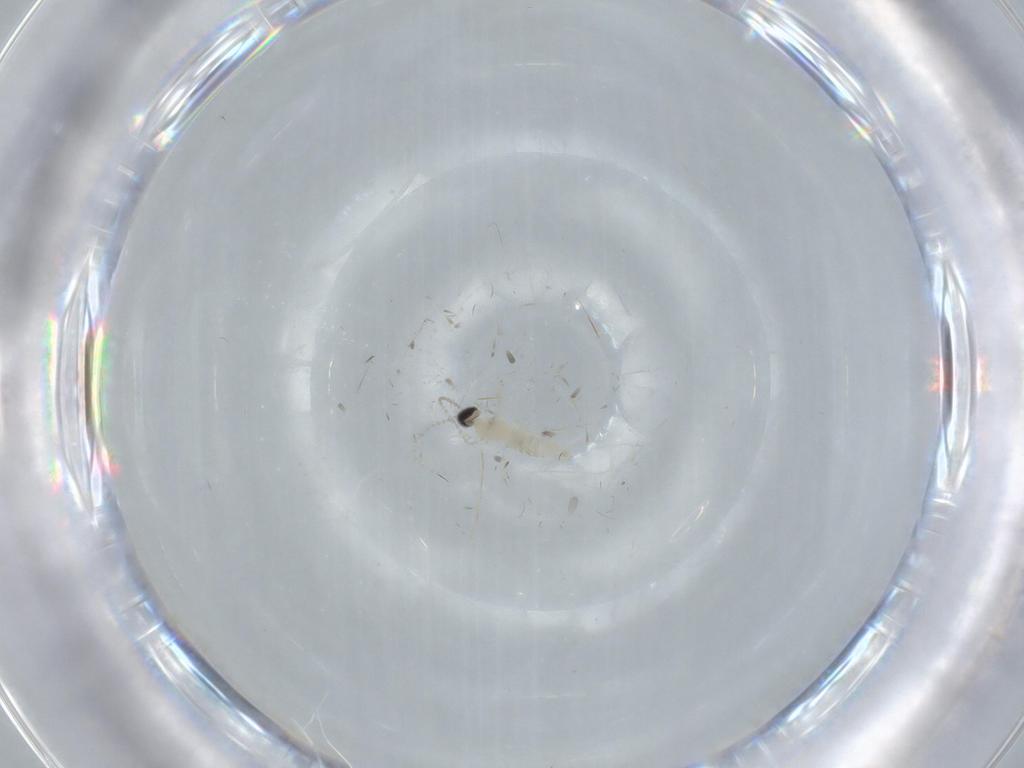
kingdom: Animalia
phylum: Arthropoda
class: Insecta
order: Diptera
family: Cecidomyiidae
